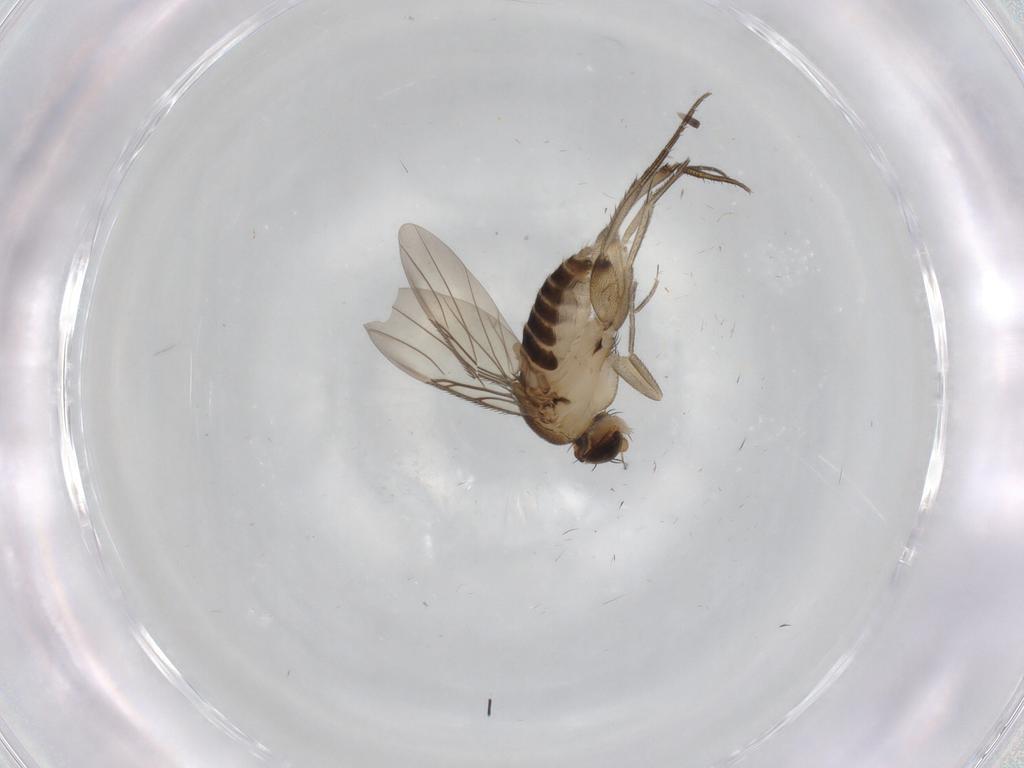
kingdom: Animalia
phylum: Arthropoda
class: Insecta
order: Diptera
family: Phoridae
